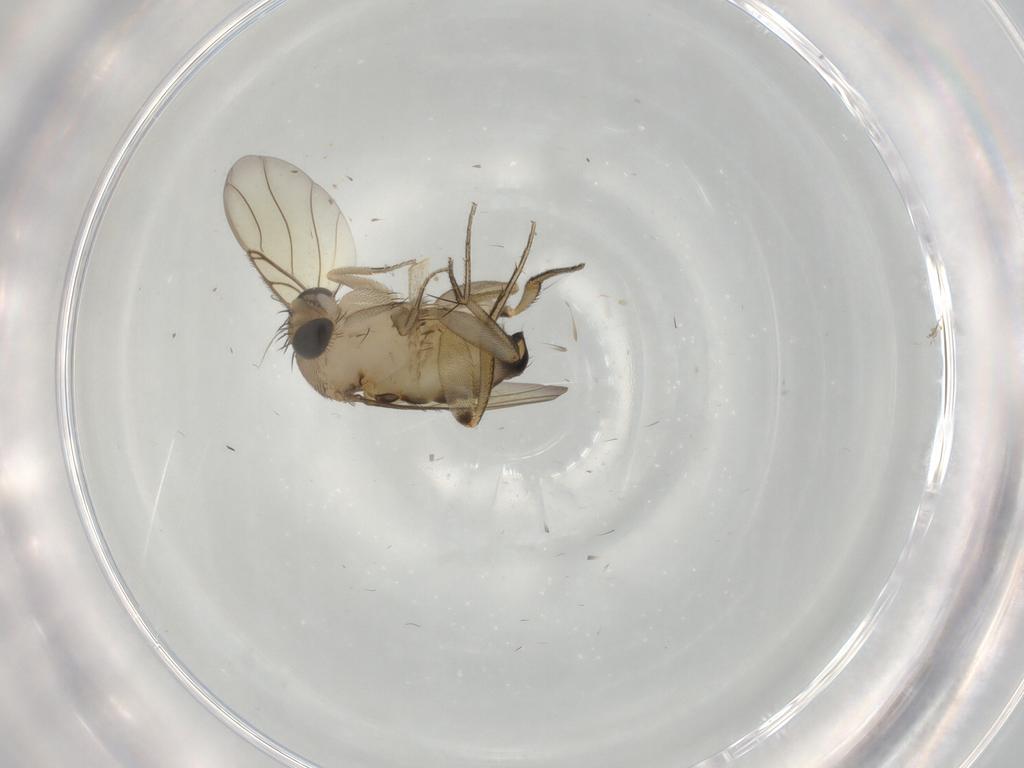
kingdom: Animalia
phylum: Arthropoda
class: Insecta
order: Diptera
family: Phoridae
